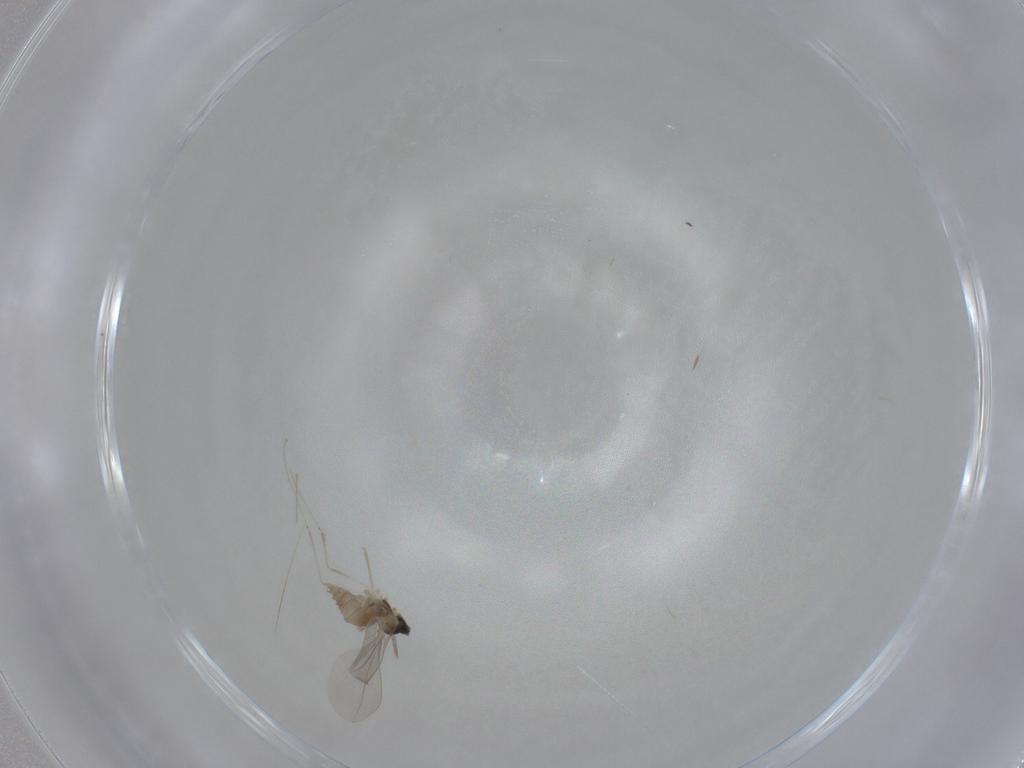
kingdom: Animalia
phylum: Arthropoda
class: Insecta
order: Diptera
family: Cecidomyiidae
